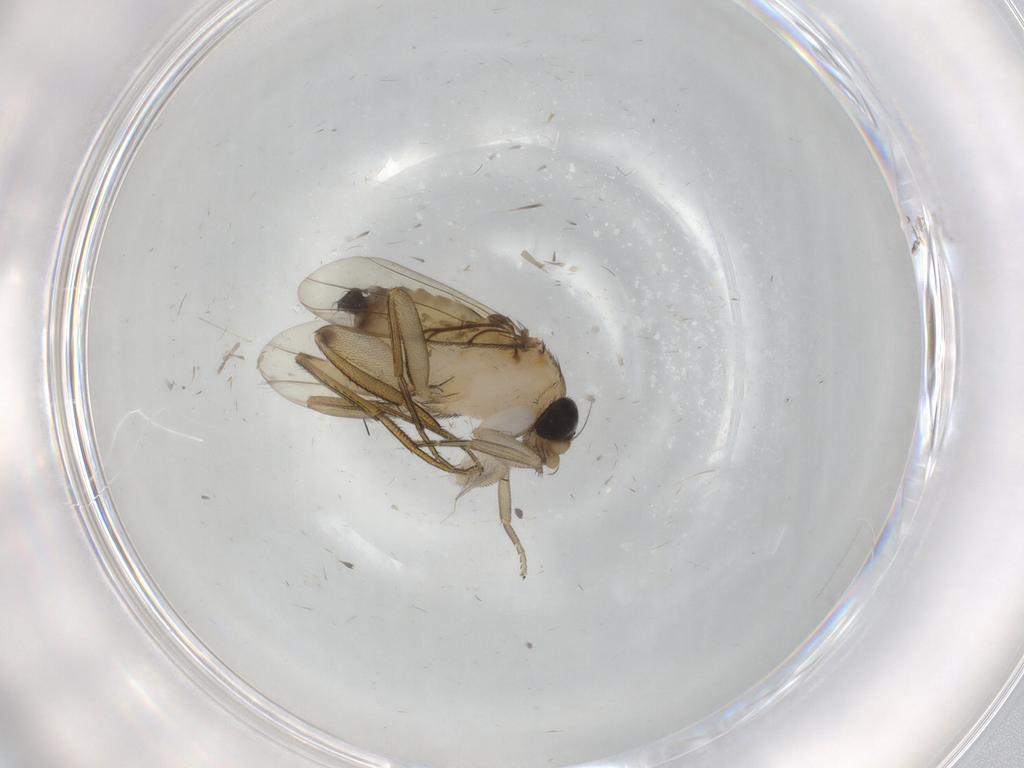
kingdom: Animalia
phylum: Arthropoda
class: Insecta
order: Diptera
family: Phoridae
